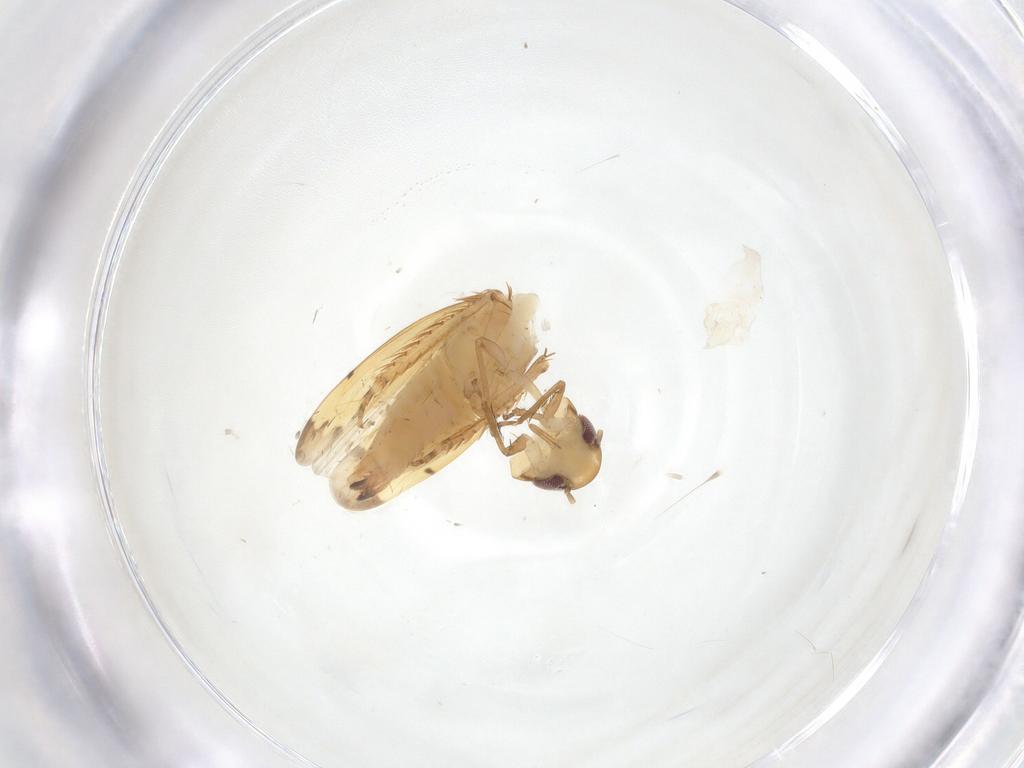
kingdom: Animalia
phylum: Arthropoda
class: Insecta
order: Hemiptera
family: Cicadellidae
